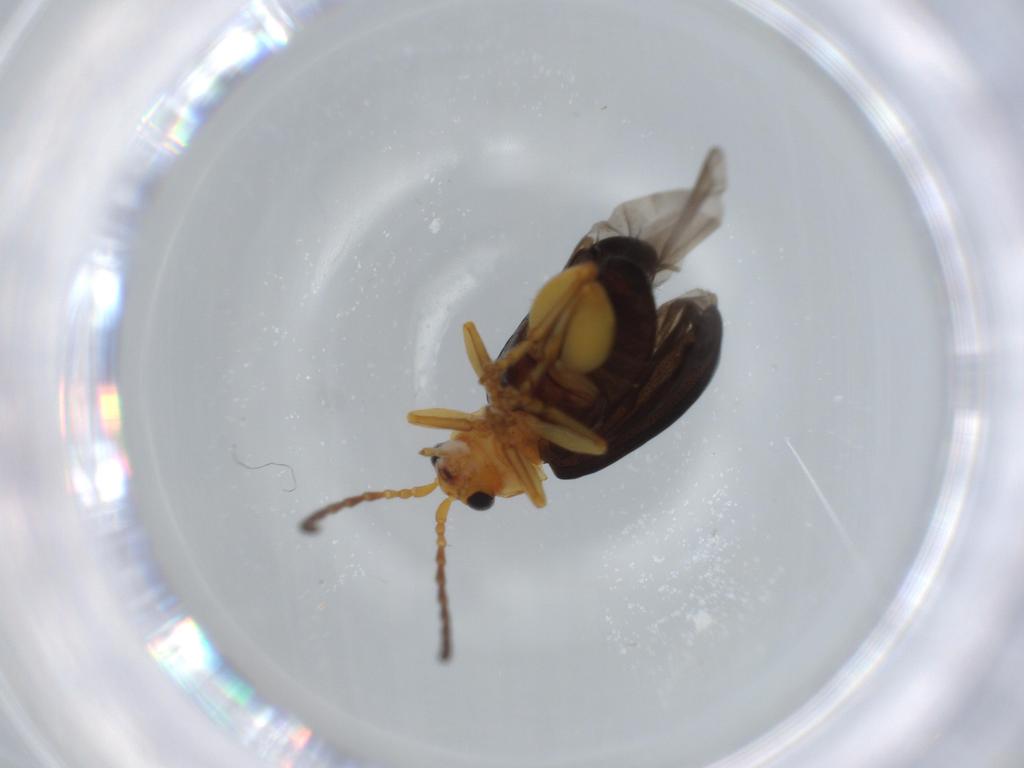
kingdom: Animalia
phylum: Arthropoda
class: Insecta
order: Coleoptera
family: Chrysomelidae
